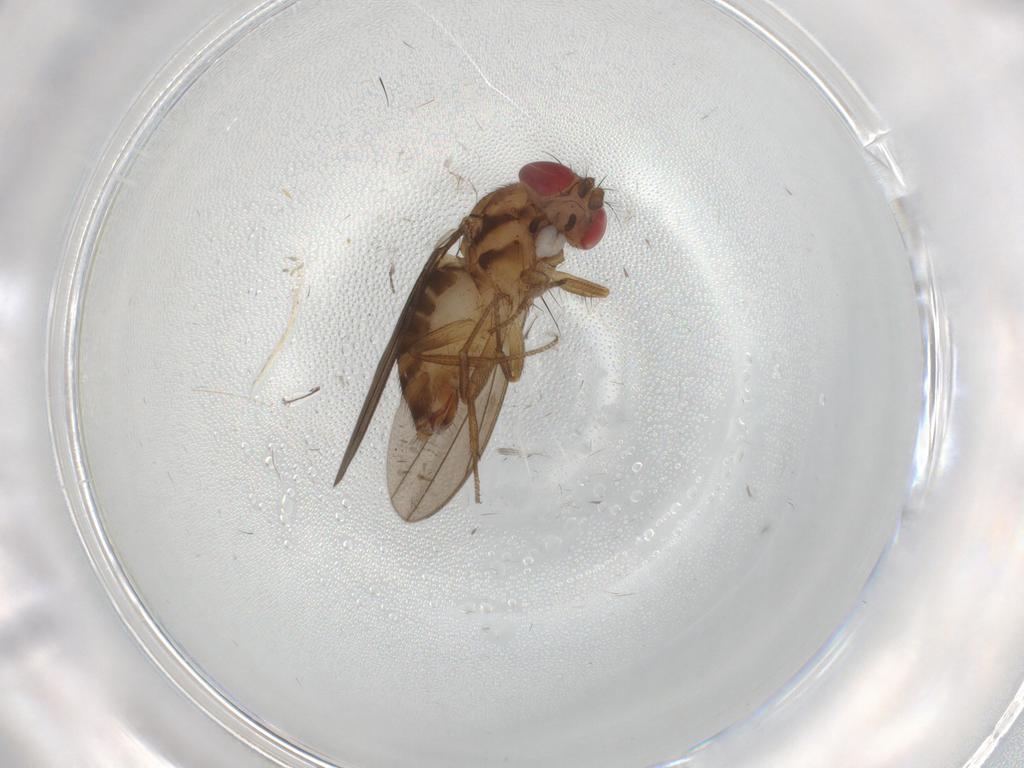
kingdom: Animalia
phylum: Arthropoda
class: Insecta
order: Diptera
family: Drosophilidae
